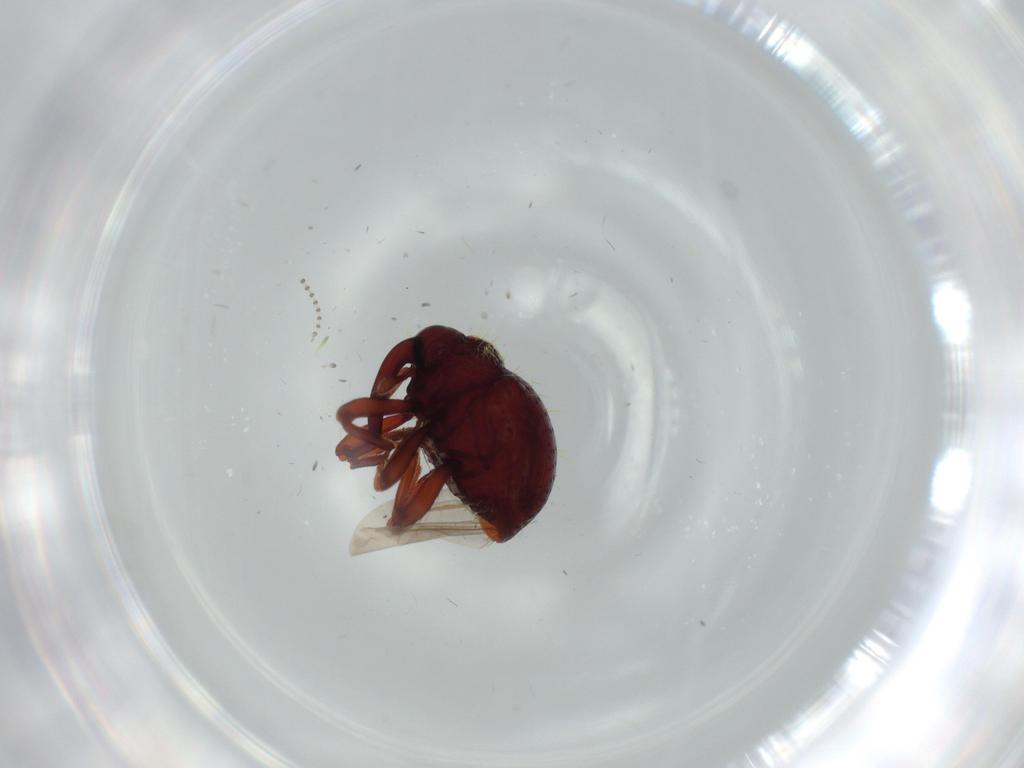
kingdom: Animalia
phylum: Arthropoda
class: Insecta
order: Coleoptera
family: Curculionidae
